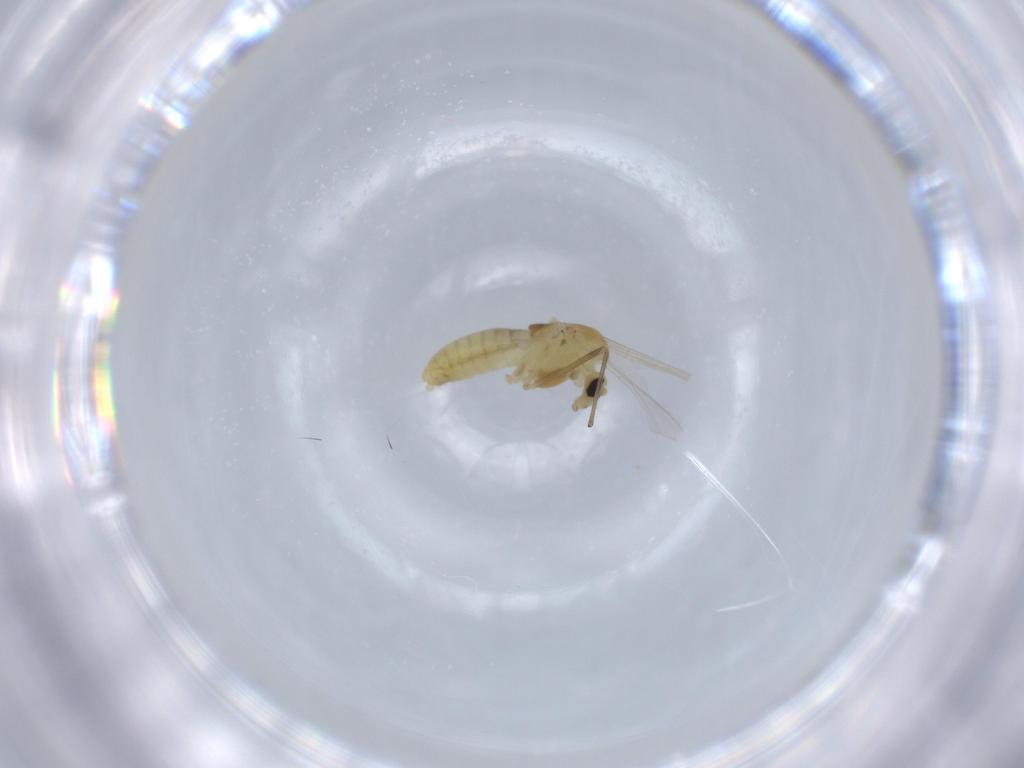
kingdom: Animalia
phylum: Arthropoda
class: Insecta
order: Diptera
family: Chironomidae
